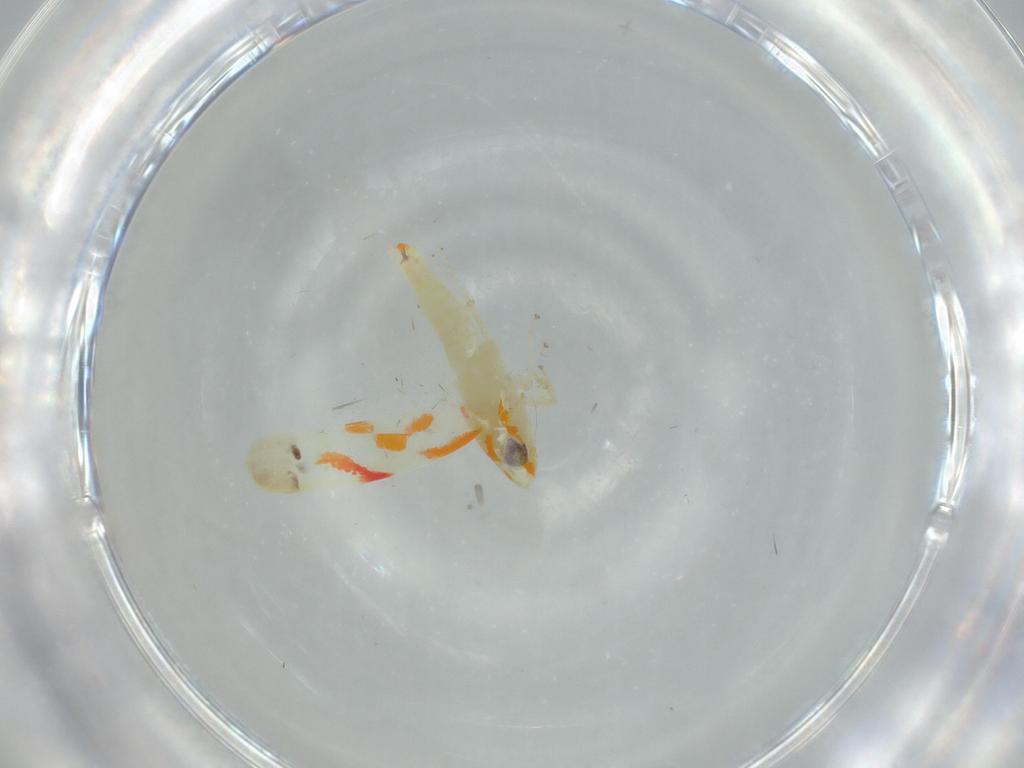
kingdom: Animalia
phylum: Arthropoda
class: Insecta
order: Hemiptera
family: Cicadellidae
